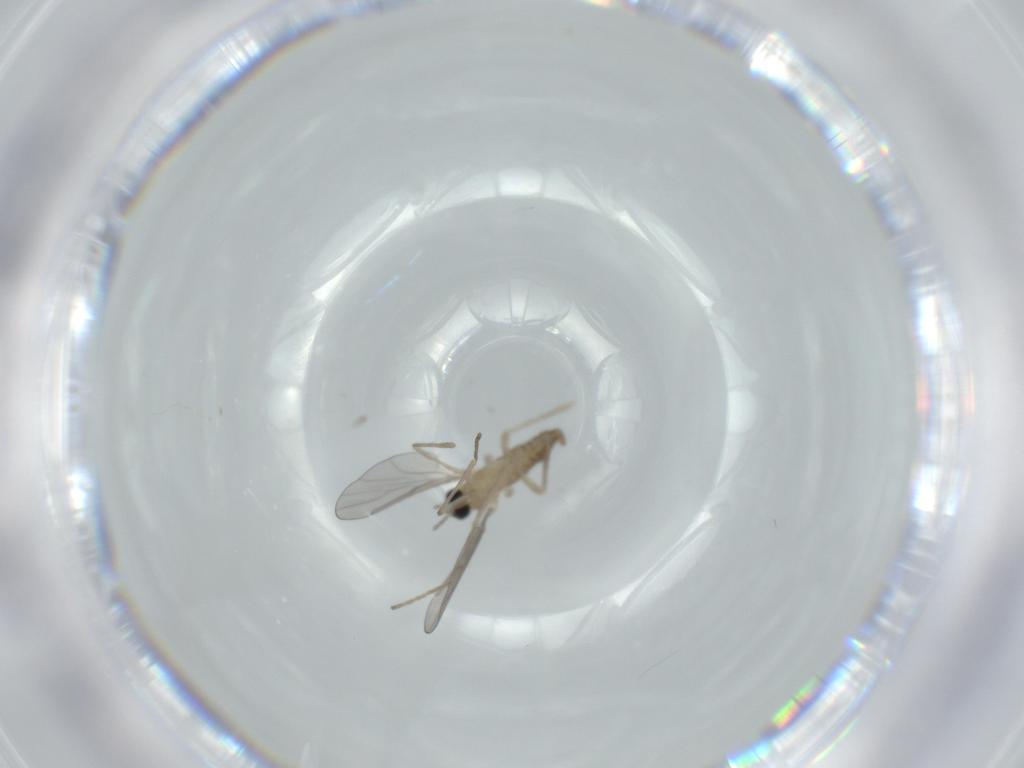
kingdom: Animalia
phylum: Arthropoda
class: Insecta
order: Diptera
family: Sphaeroceridae
